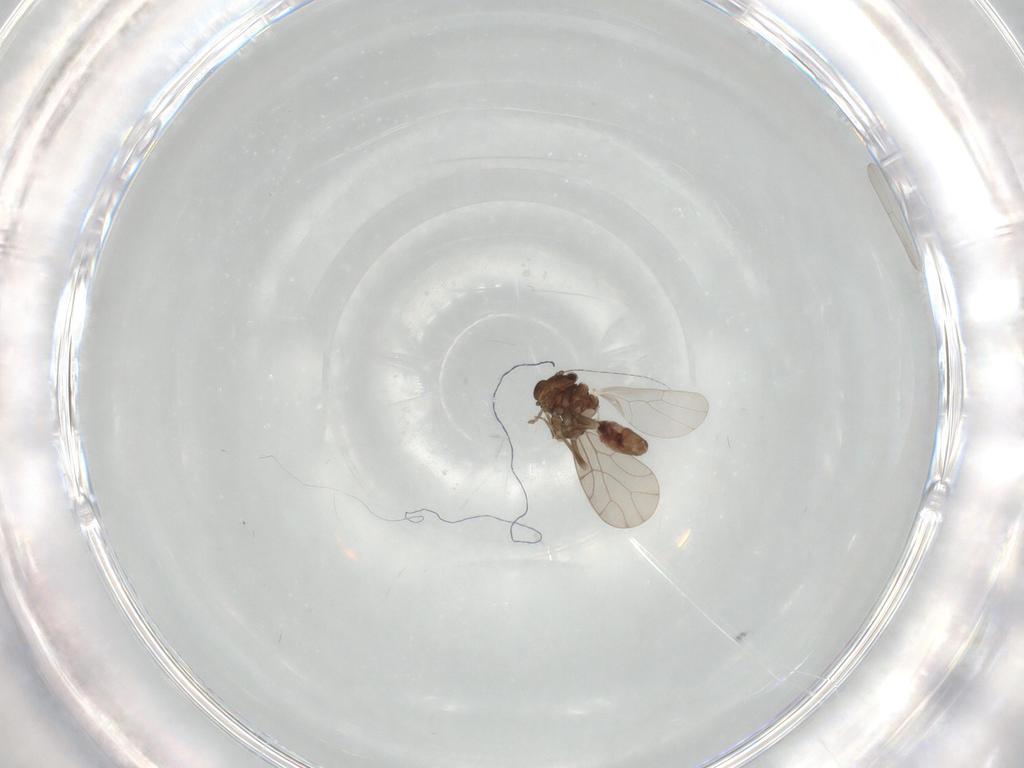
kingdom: Animalia
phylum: Arthropoda
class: Insecta
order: Psocodea
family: Lepidopsocidae
